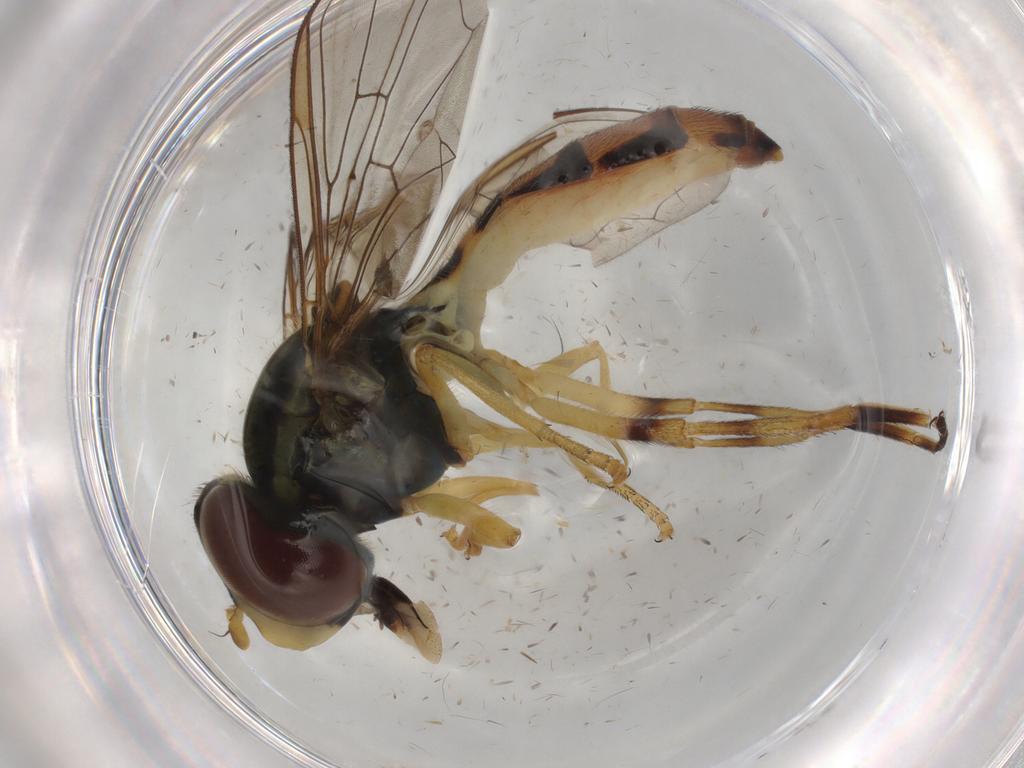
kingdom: Animalia
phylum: Arthropoda
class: Insecta
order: Diptera
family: Syrphidae
